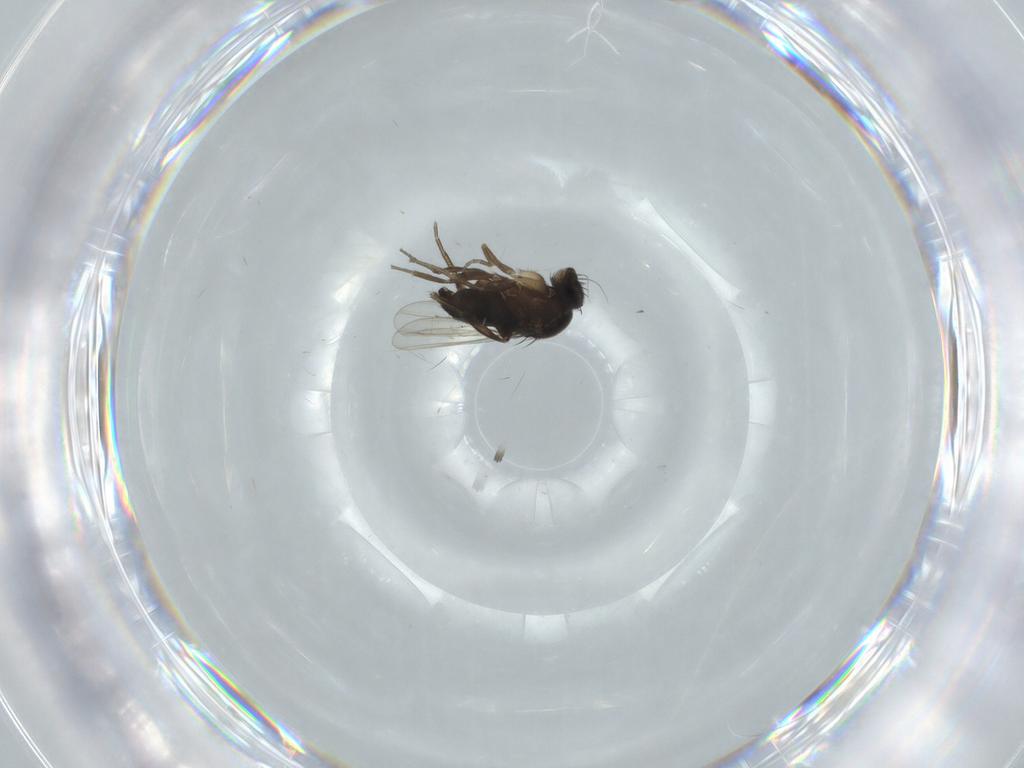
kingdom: Animalia
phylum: Arthropoda
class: Insecta
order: Diptera
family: Phoridae
